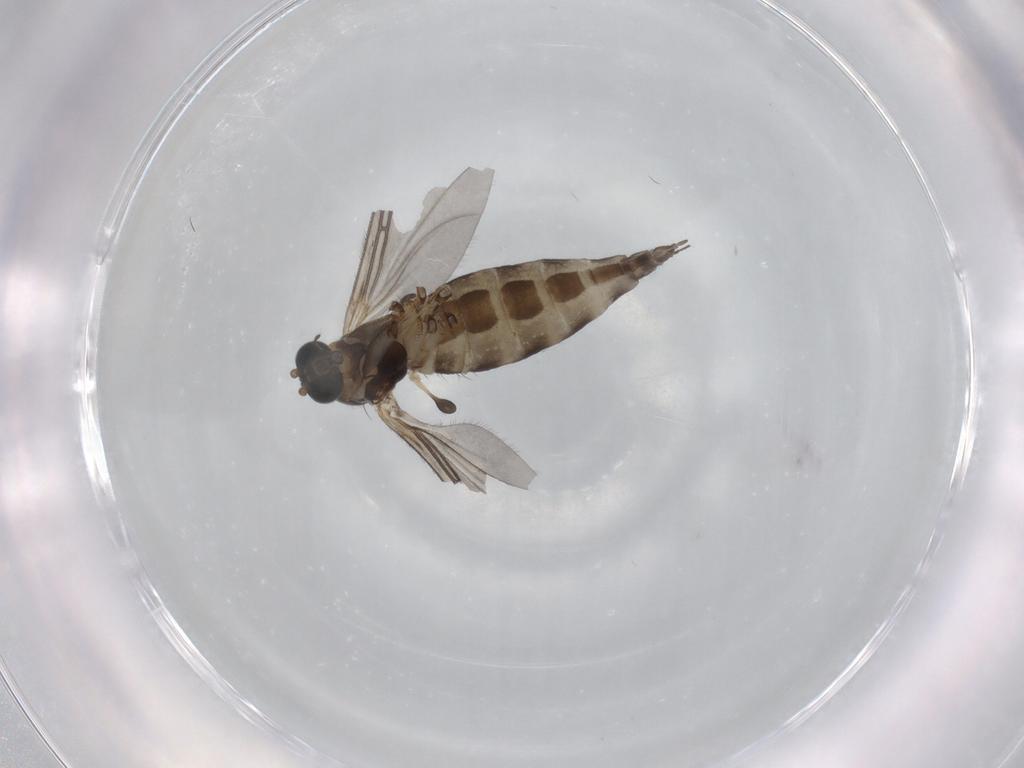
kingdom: Animalia
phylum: Arthropoda
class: Insecta
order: Diptera
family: Sciaridae
